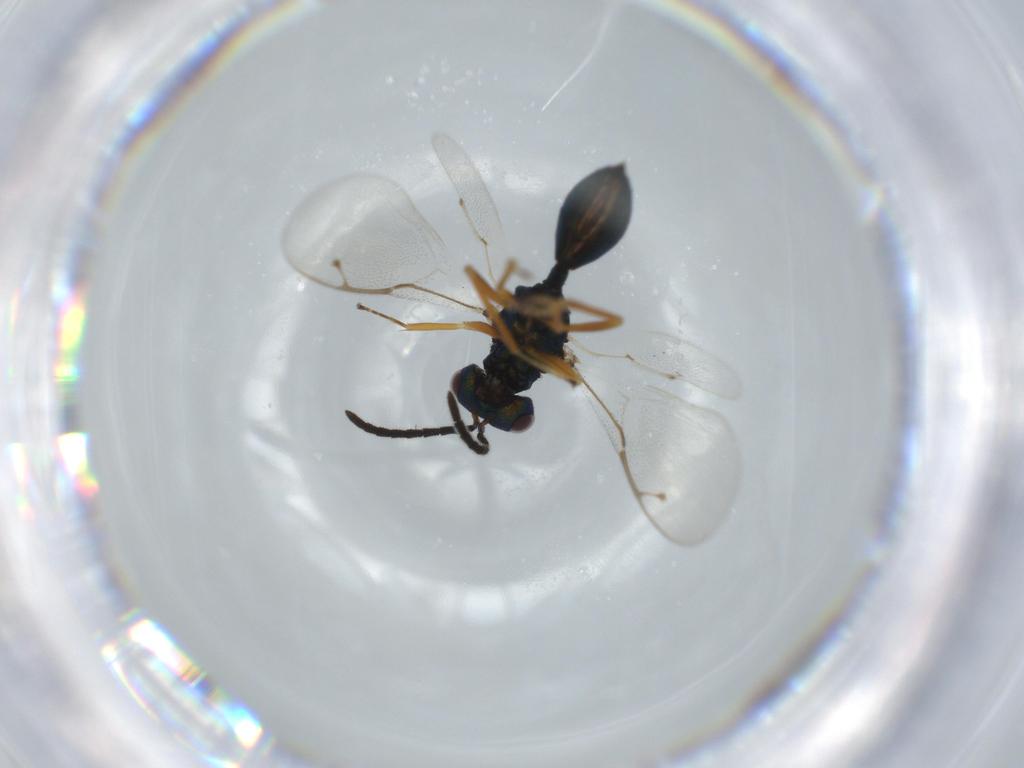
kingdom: Animalia
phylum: Arthropoda
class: Insecta
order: Hymenoptera
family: Pteromalidae
